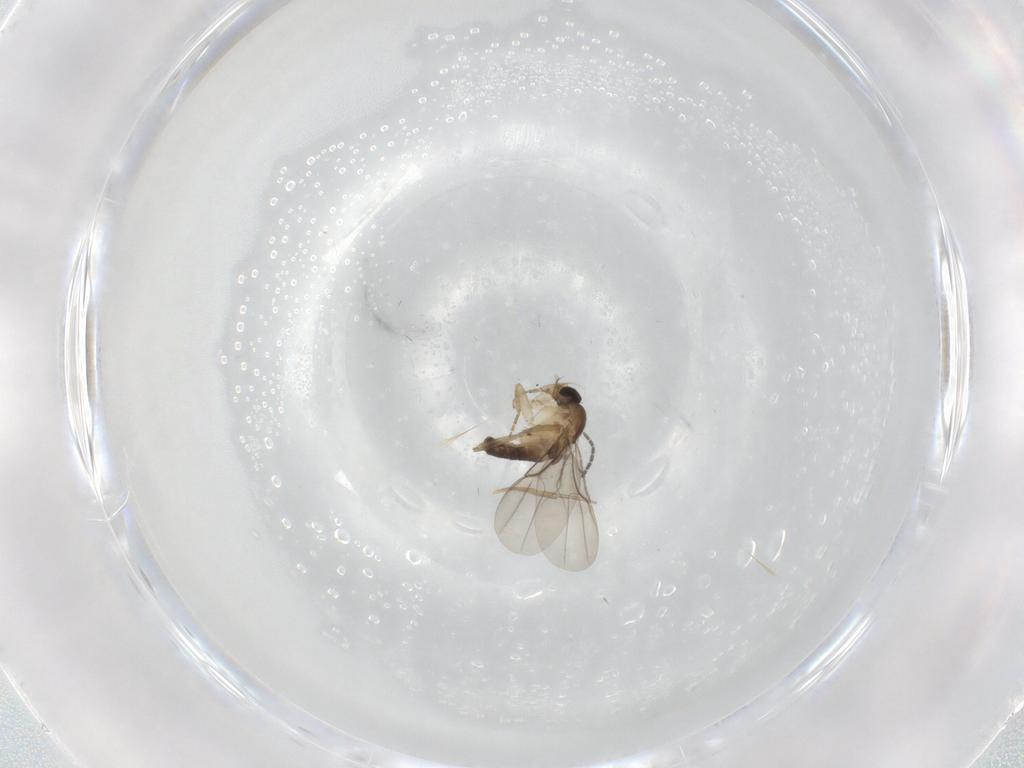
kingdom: Animalia
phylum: Arthropoda
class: Insecta
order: Diptera
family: Phoridae
